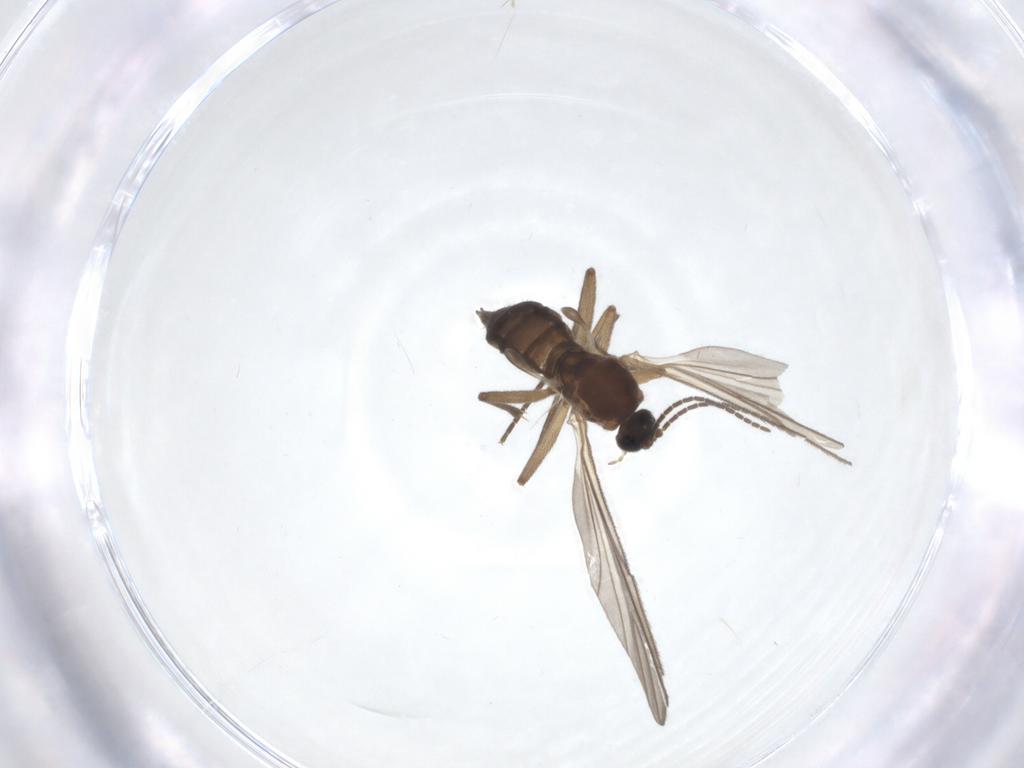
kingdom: Animalia
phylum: Arthropoda
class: Insecta
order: Diptera
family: Sciaridae
